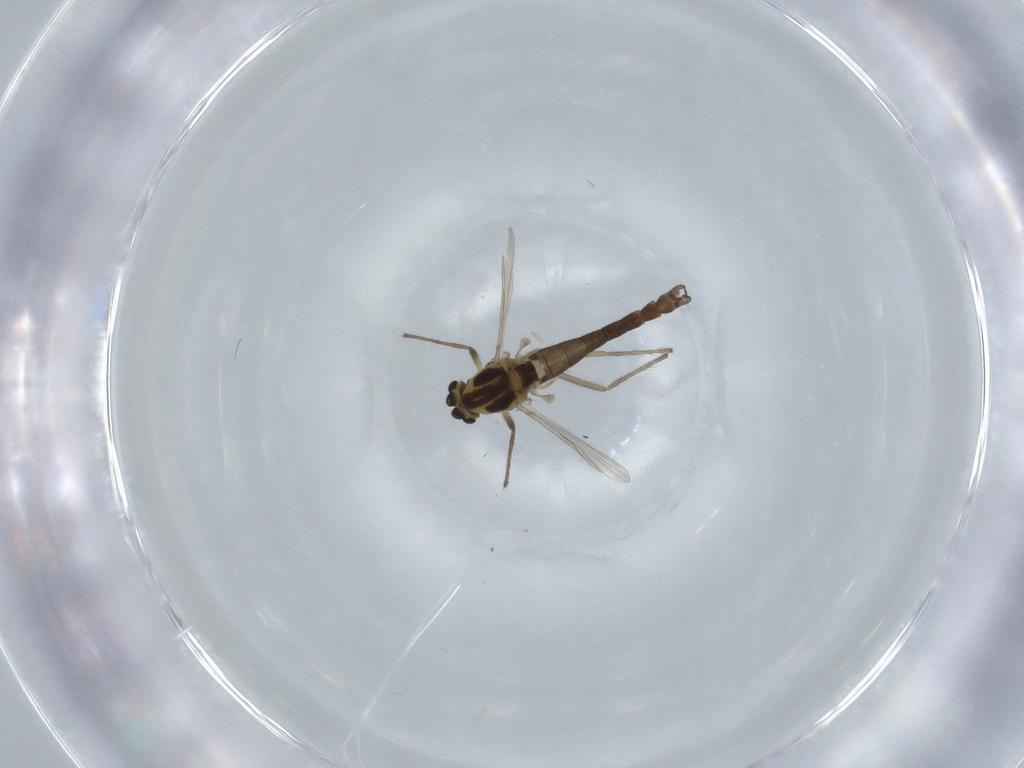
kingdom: Animalia
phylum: Arthropoda
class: Insecta
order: Diptera
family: Chironomidae
